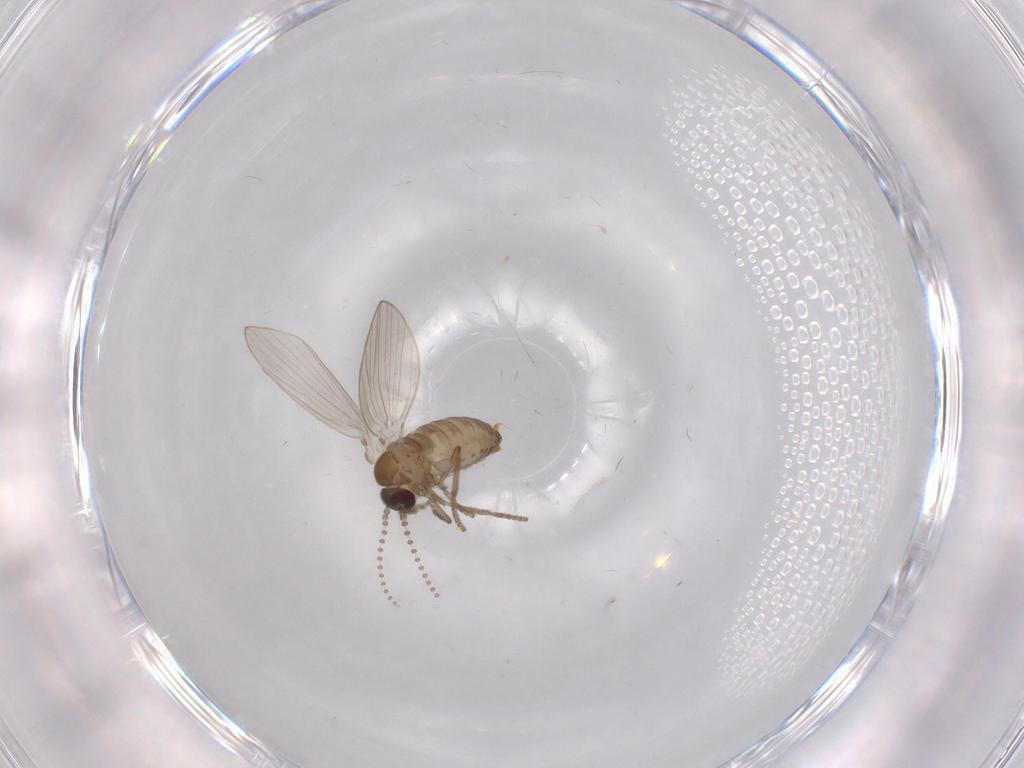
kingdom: Animalia
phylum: Arthropoda
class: Insecta
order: Diptera
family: Psychodidae
